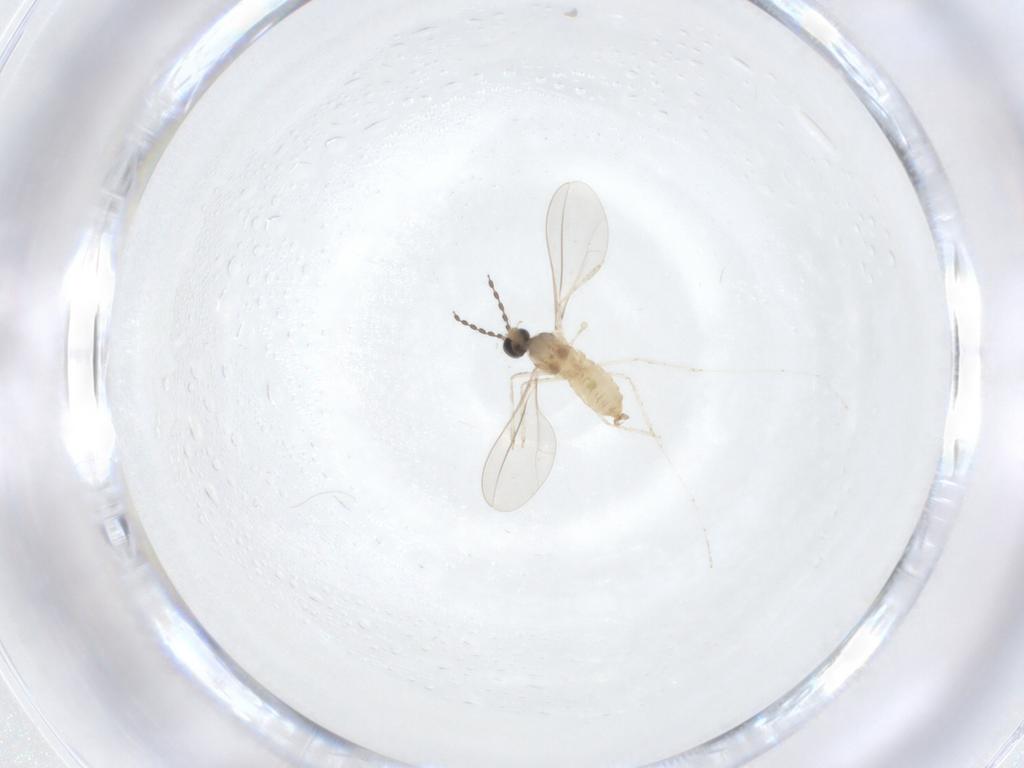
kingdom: Animalia
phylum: Arthropoda
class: Insecta
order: Diptera
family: Cecidomyiidae
